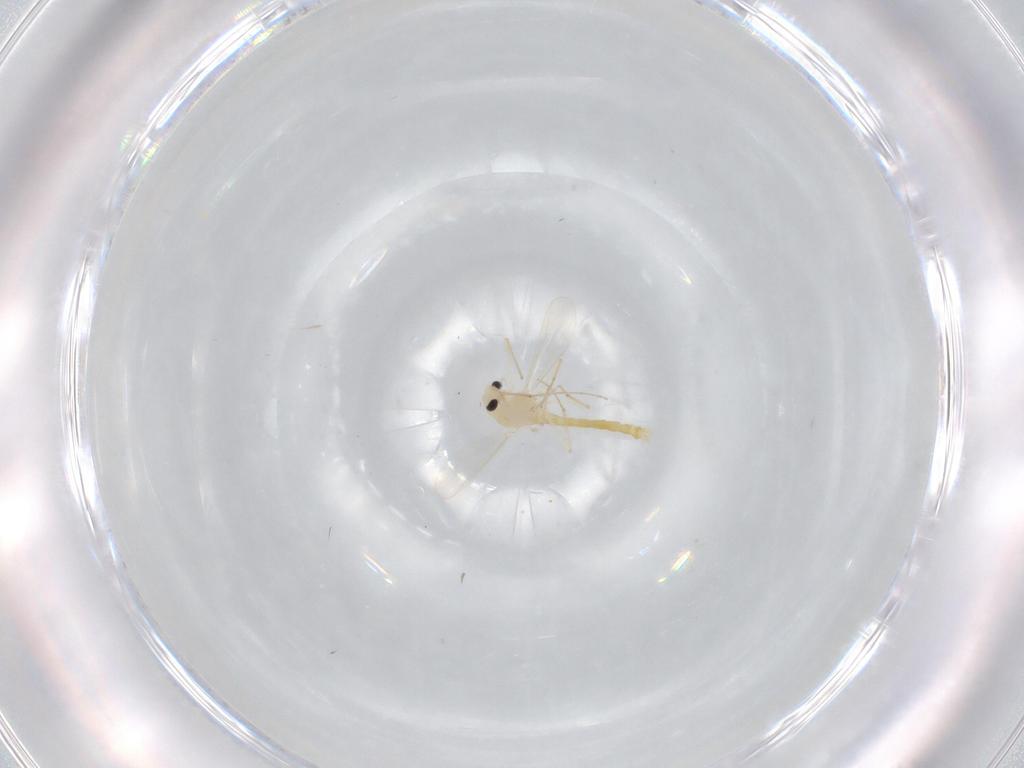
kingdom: Animalia
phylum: Arthropoda
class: Insecta
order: Diptera
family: Chironomidae
